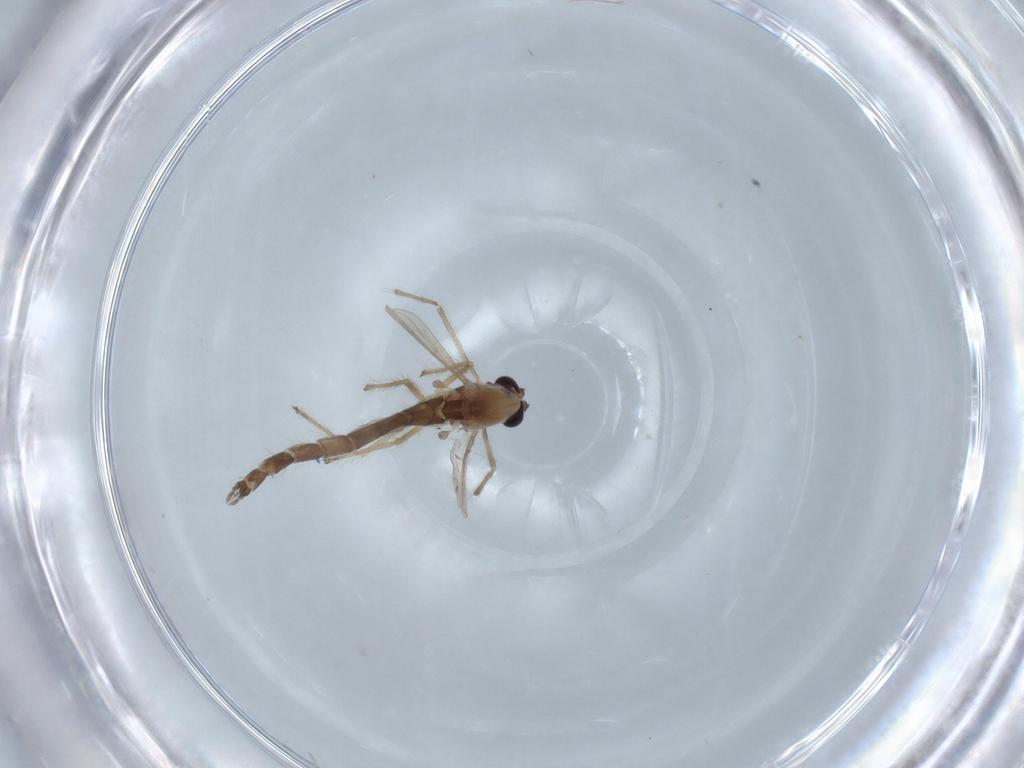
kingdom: Animalia
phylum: Arthropoda
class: Insecta
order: Diptera
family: Chironomidae
